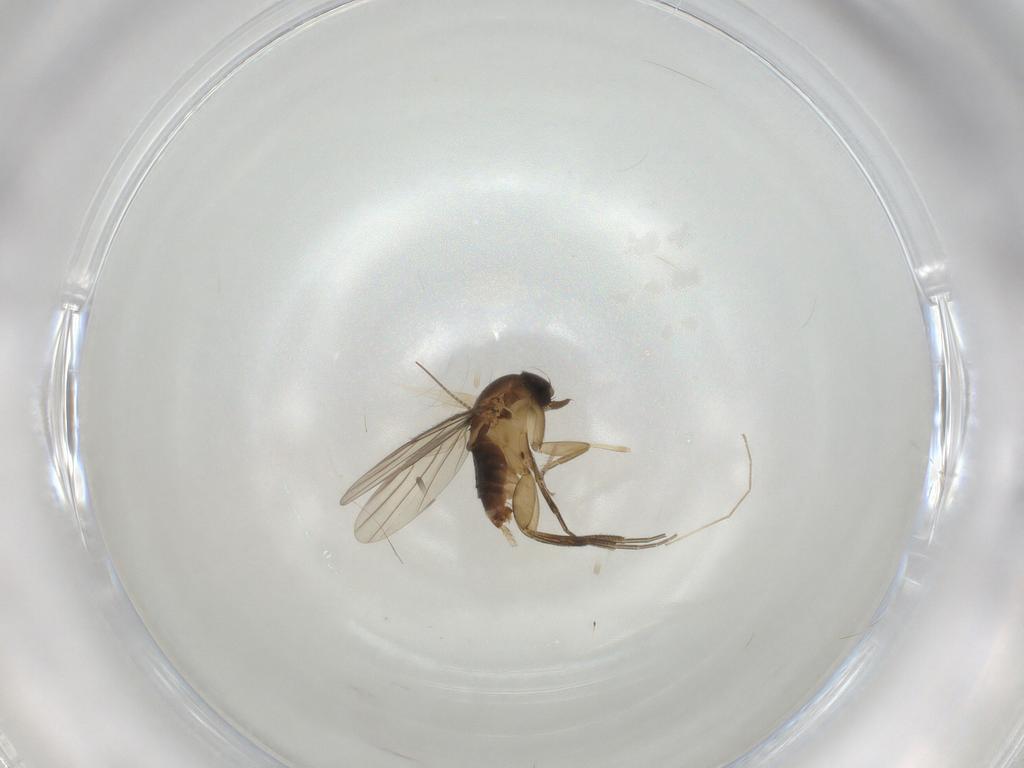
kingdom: Animalia
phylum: Arthropoda
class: Insecta
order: Diptera
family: Phoridae
